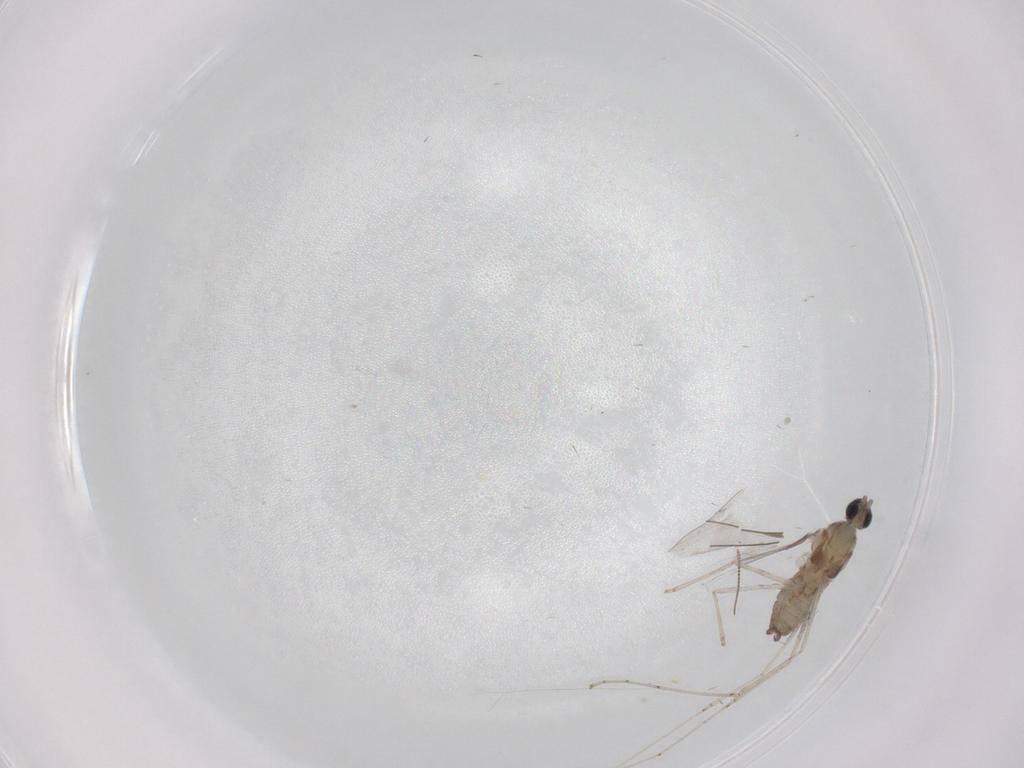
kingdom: Animalia
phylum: Arthropoda
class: Insecta
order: Diptera
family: Cecidomyiidae
